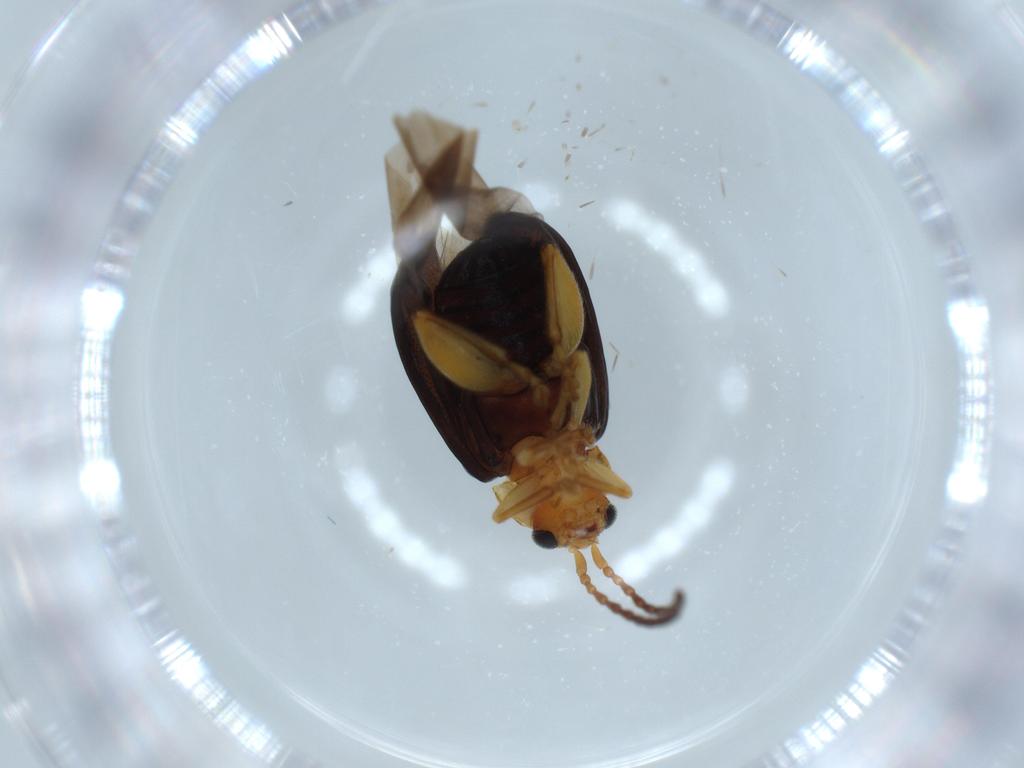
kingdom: Animalia
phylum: Arthropoda
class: Insecta
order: Coleoptera
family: Chrysomelidae
